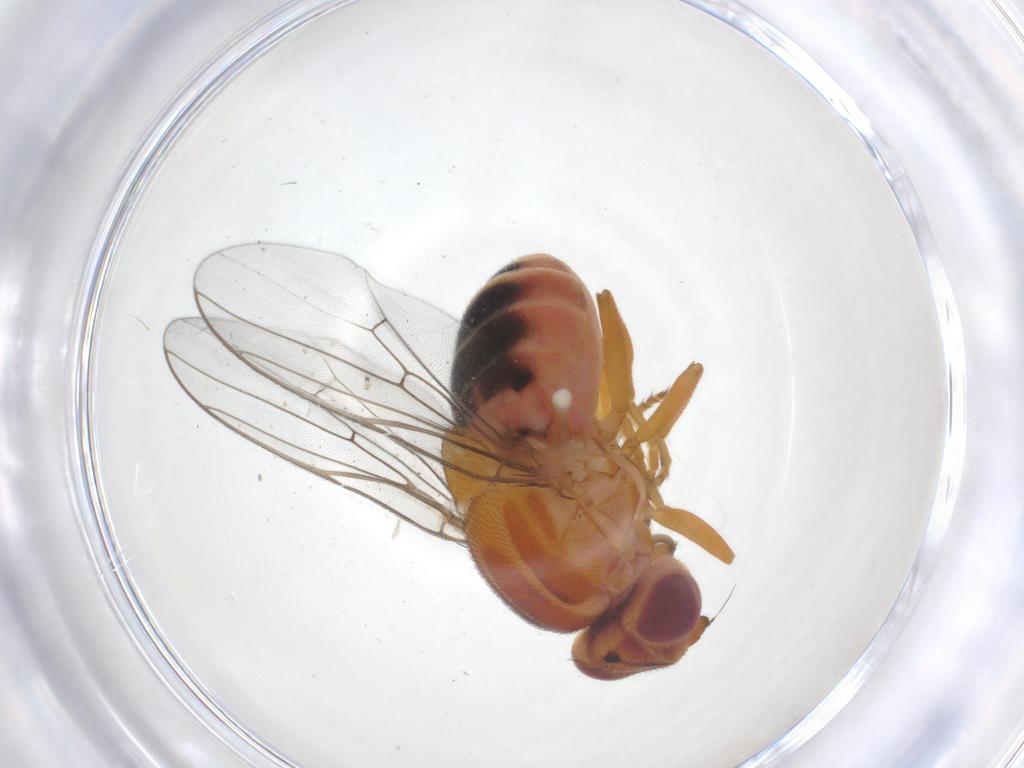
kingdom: Animalia
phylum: Arthropoda
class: Insecta
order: Diptera
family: Chloropidae
